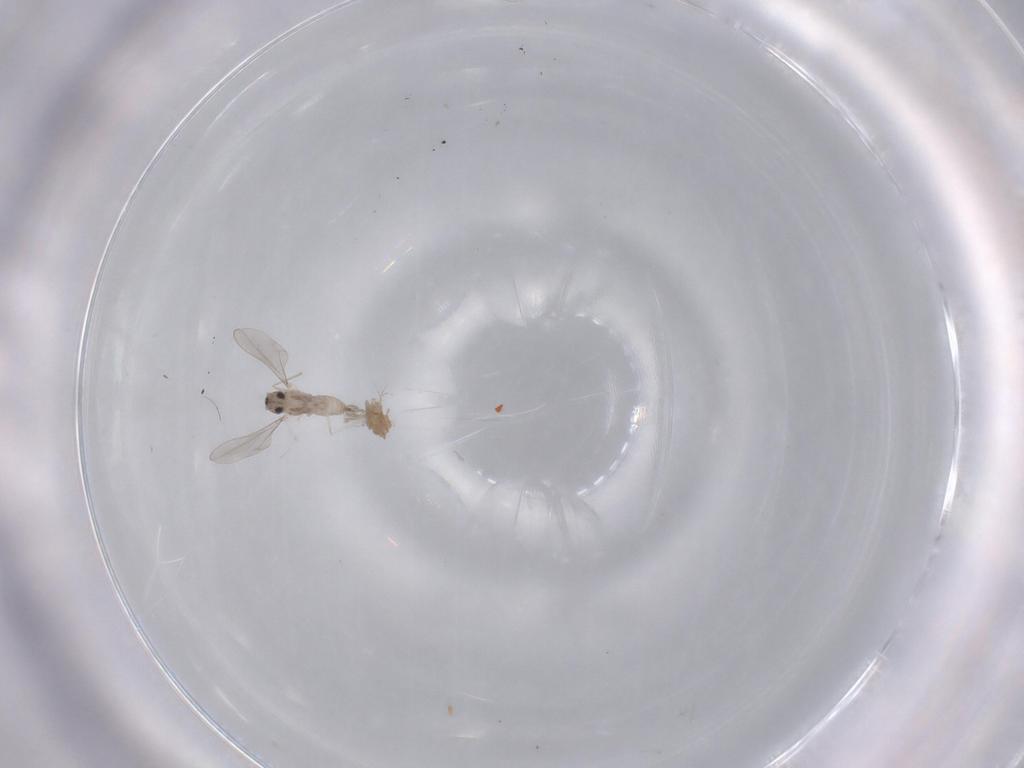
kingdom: Animalia
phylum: Arthropoda
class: Insecta
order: Diptera
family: Cecidomyiidae
